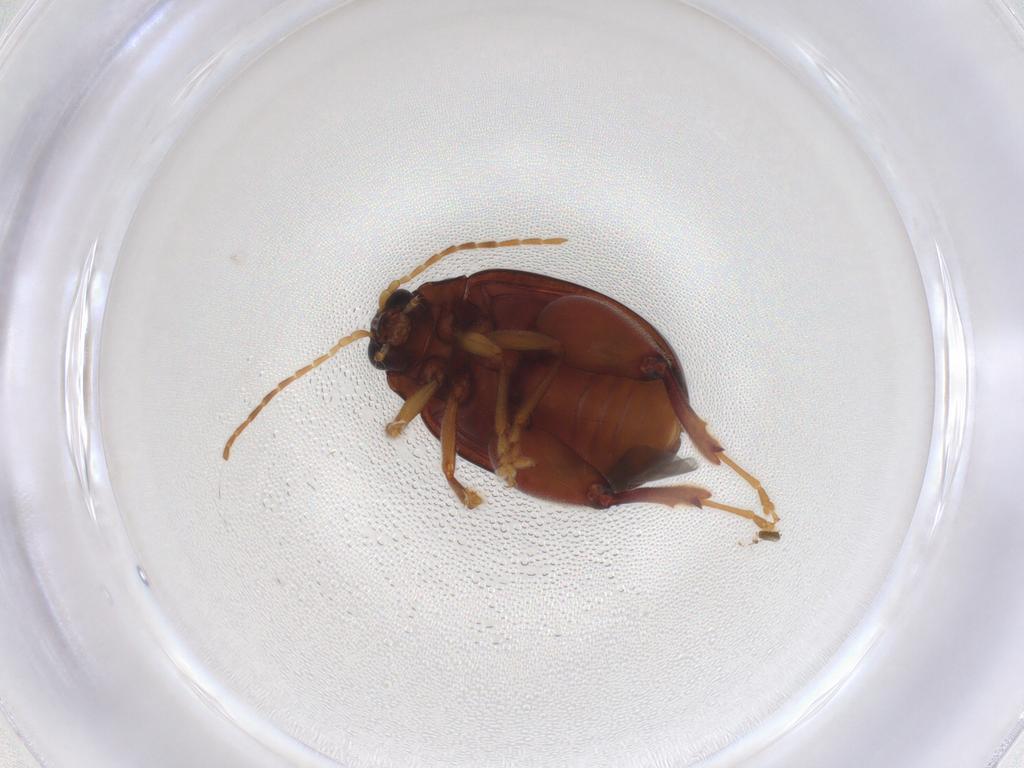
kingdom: Animalia
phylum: Arthropoda
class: Insecta
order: Coleoptera
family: Chrysomelidae
